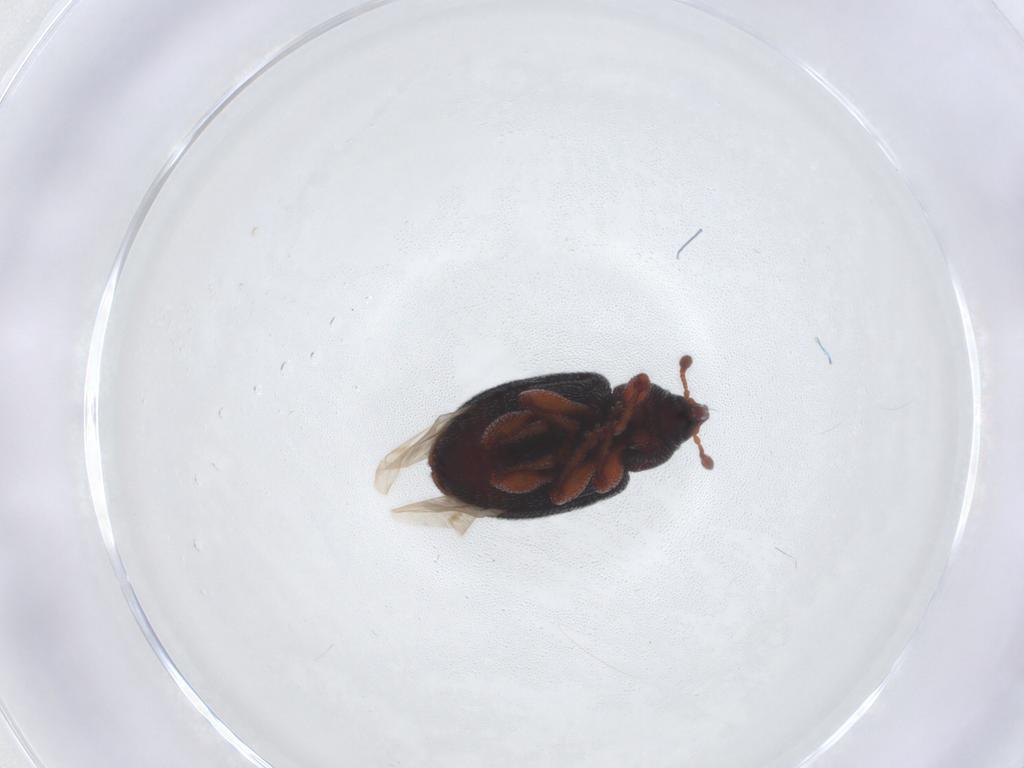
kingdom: Animalia
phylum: Arthropoda
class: Insecta
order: Coleoptera
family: Curculionidae
